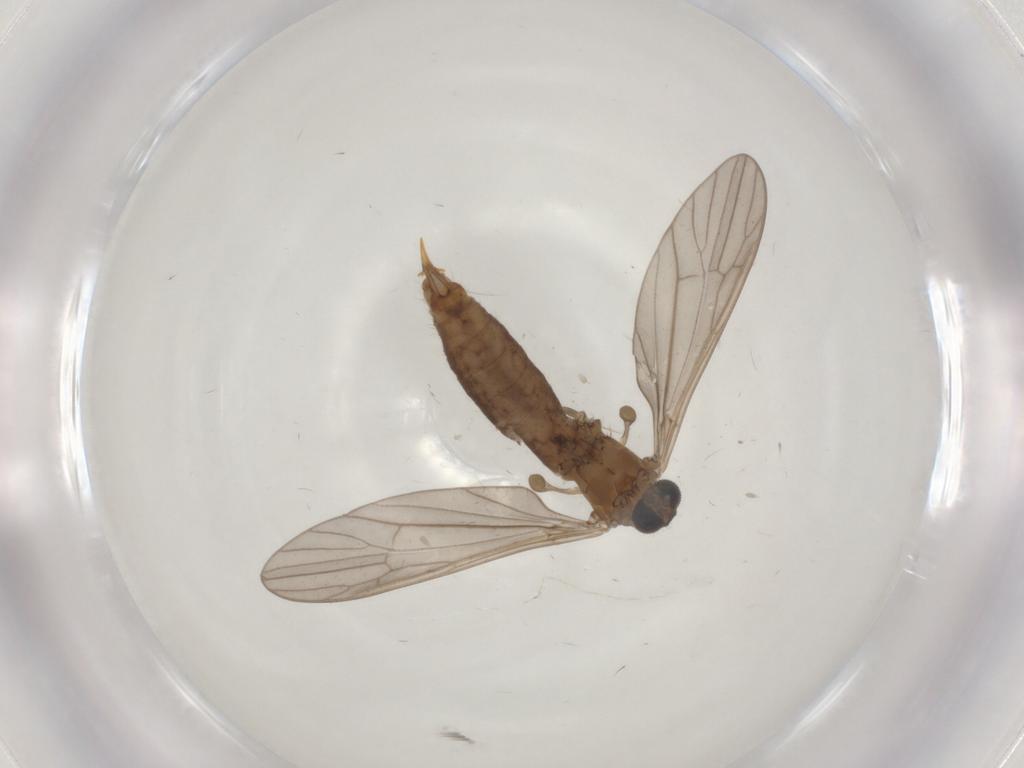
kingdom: Animalia
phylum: Arthropoda
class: Insecta
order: Diptera
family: Limoniidae
